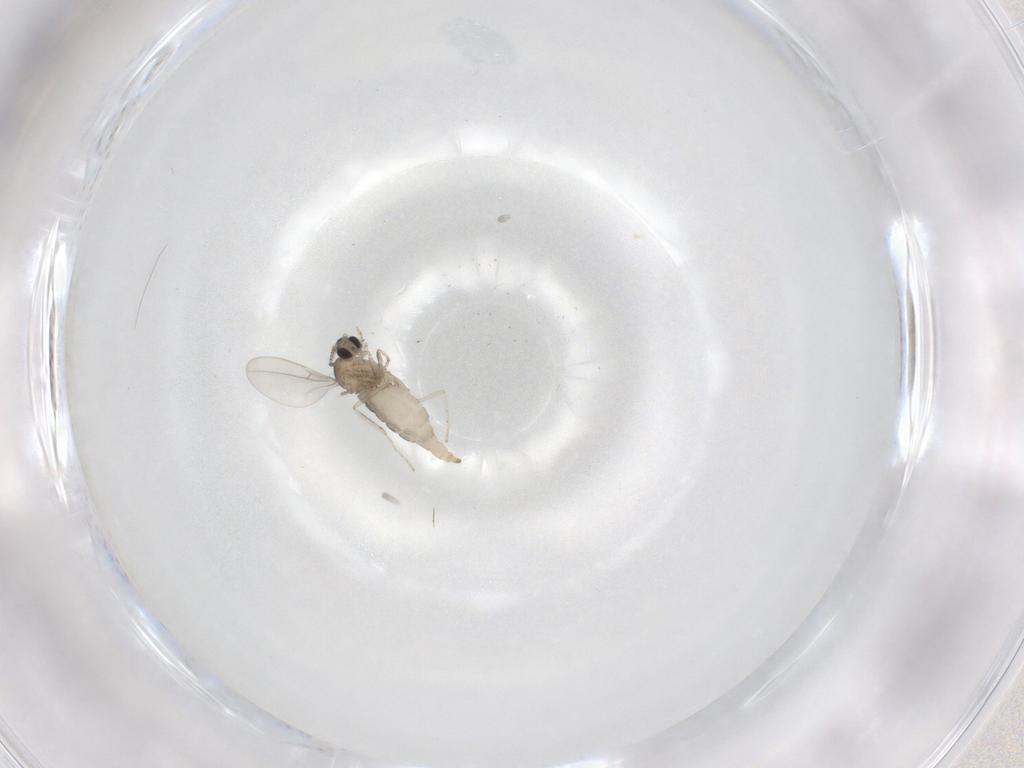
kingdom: Animalia
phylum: Arthropoda
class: Insecta
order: Diptera
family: Cecidomyiidae
